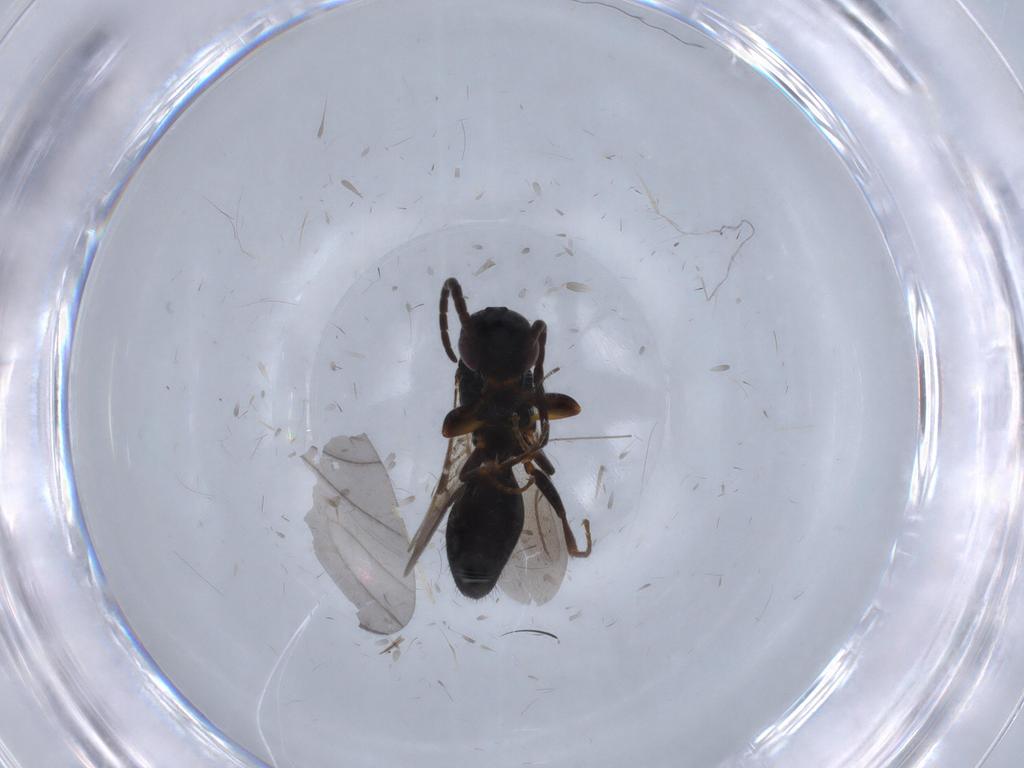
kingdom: Animalia
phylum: Arthropoda
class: Insecta
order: Hymenoptera
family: Bethylidae
